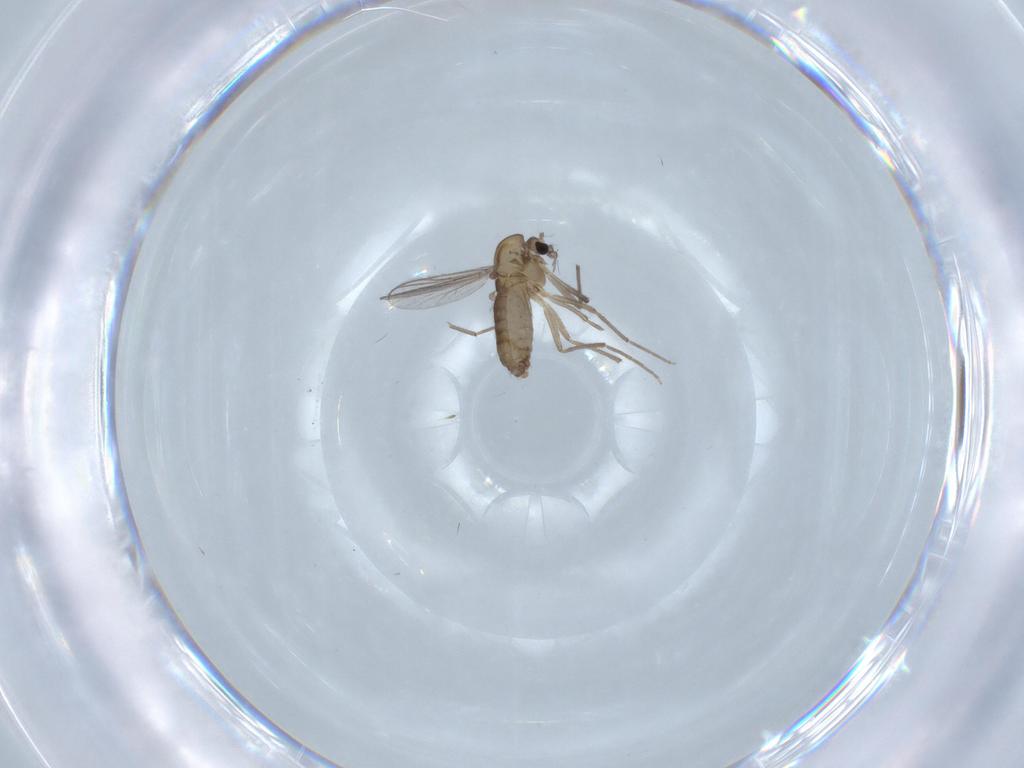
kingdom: Animalia
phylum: Arthropoda
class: Insecta
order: Diptera
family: Chironomidae
